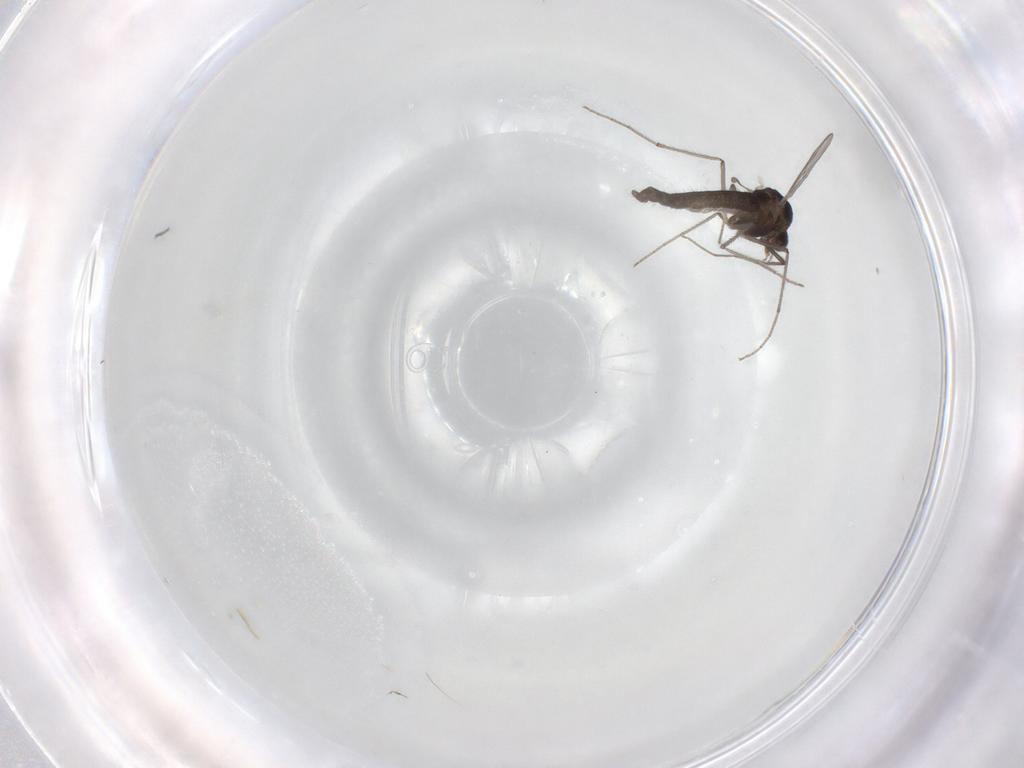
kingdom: Animalia
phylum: Arthropoda
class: Insecta
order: Diptera
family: Chironomidae
